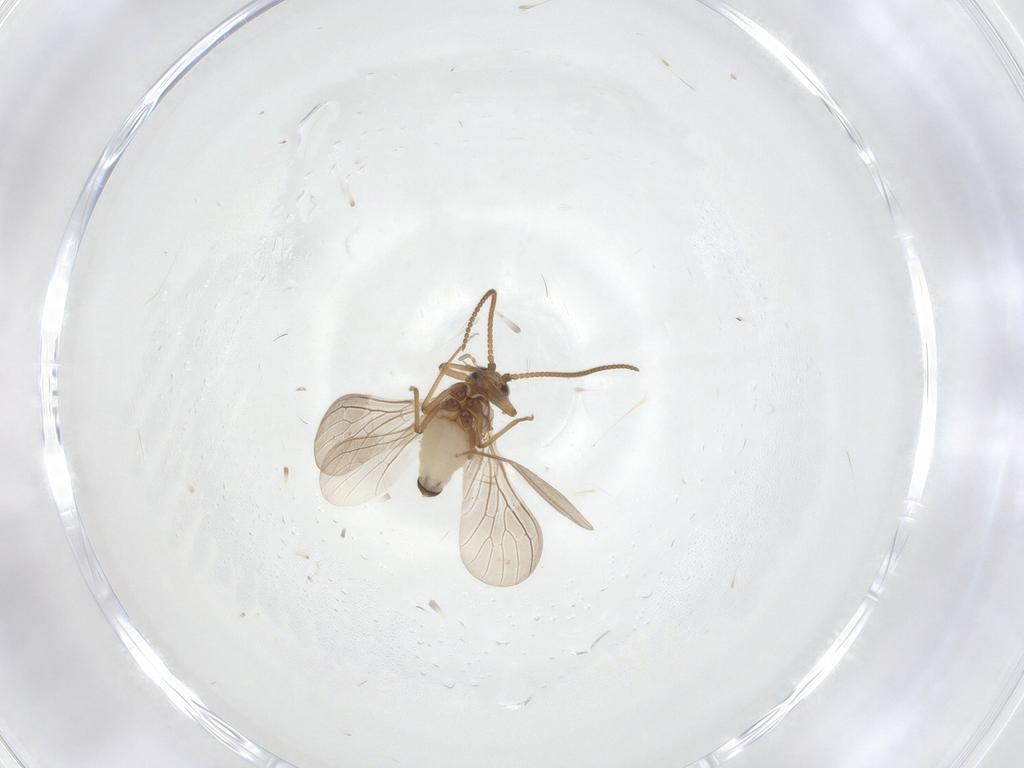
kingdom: Animalia
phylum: Arthropoda
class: Insecta
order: Neuroptera
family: Coniopterygidae
